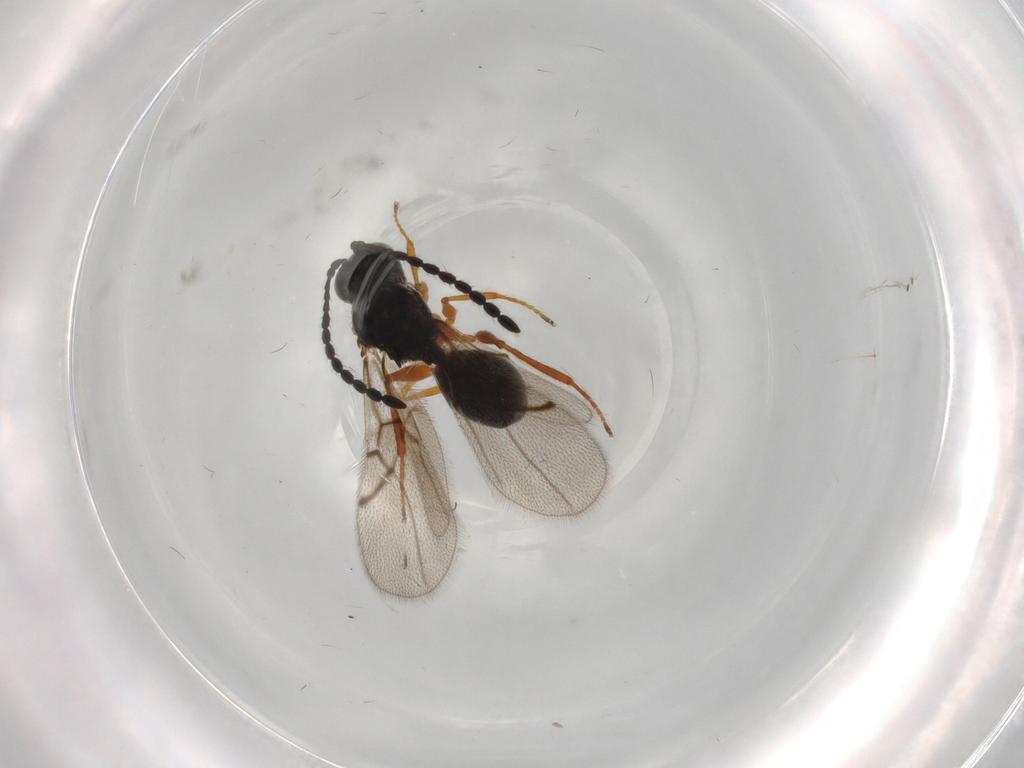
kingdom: Animalia
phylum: Arthropoda
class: Insecta
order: Hymenoptera
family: Figitidae
